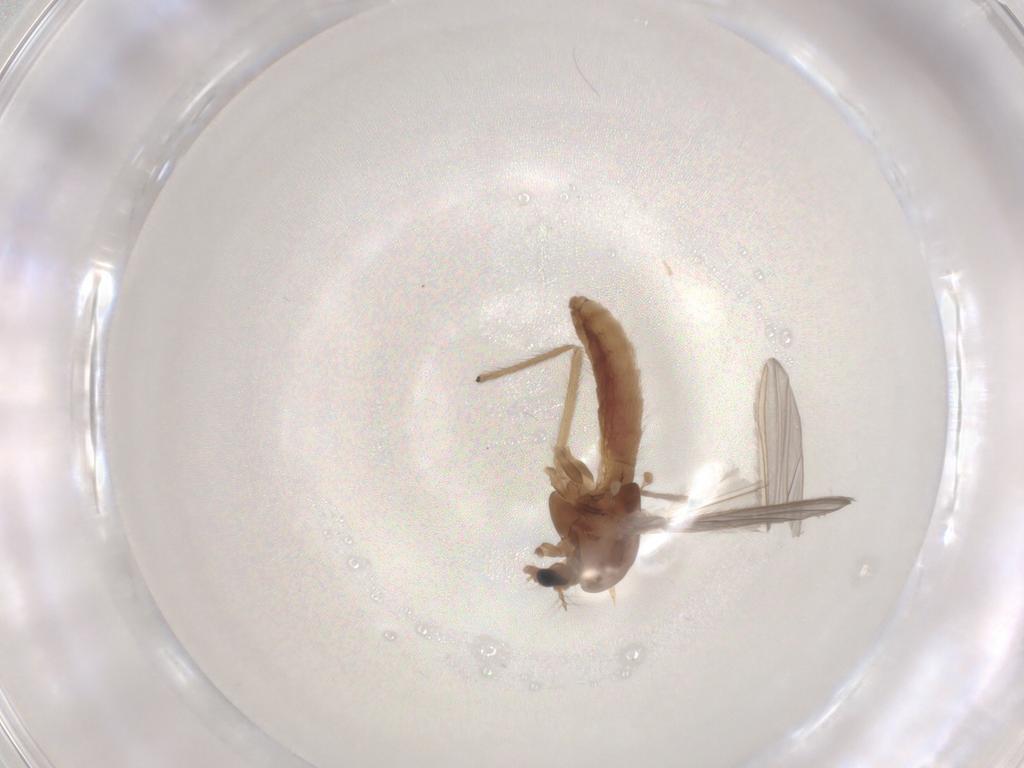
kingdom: Animalia
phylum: Arthropoda
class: Insecta
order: Diptera
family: Chironomidae
